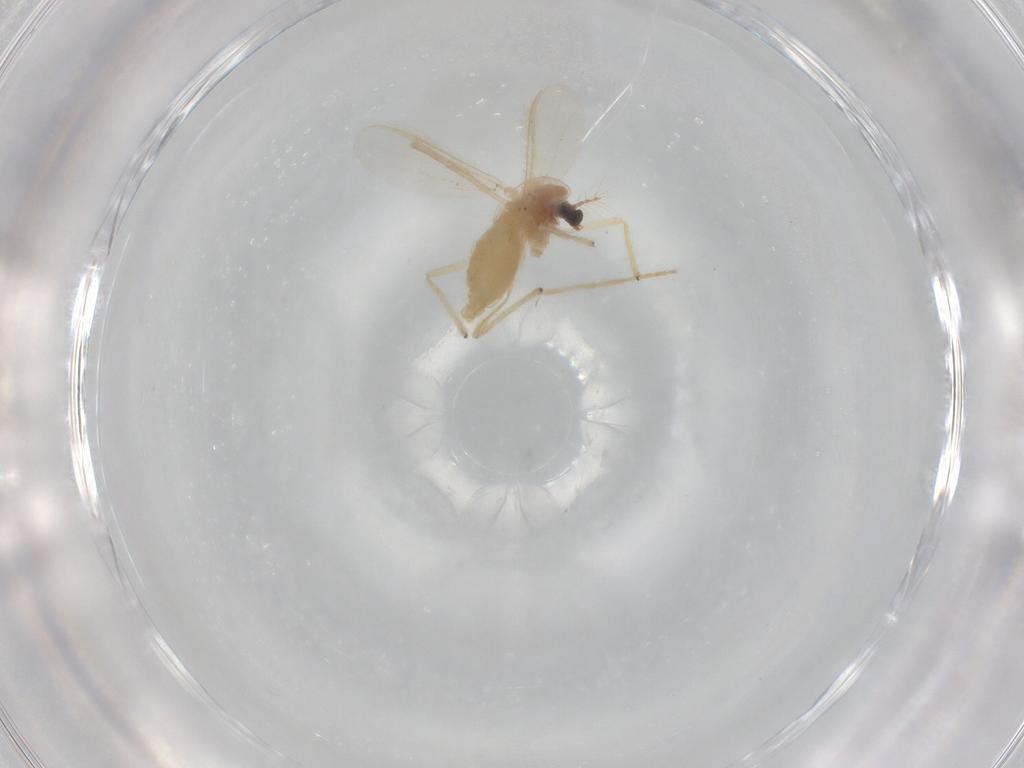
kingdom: Animalia
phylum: Arthropoda
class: Insecta
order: Diptera
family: Chironomidae
